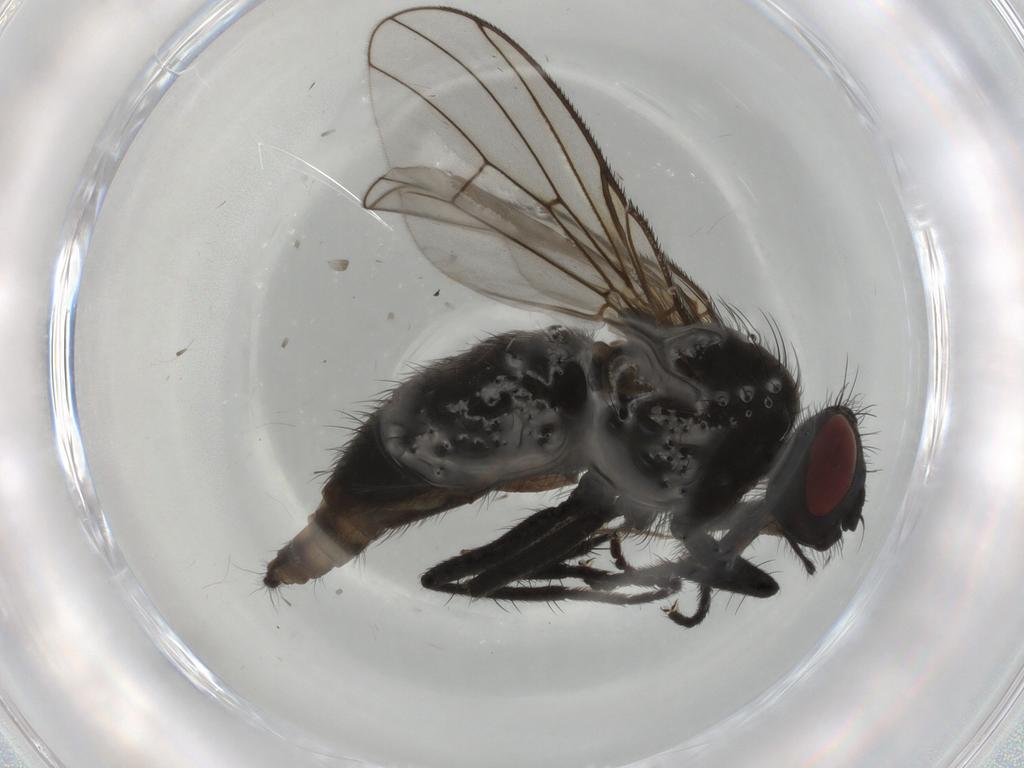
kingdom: Animalia
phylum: Arthropoda
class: Insecta
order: Diptera
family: Muscidae
